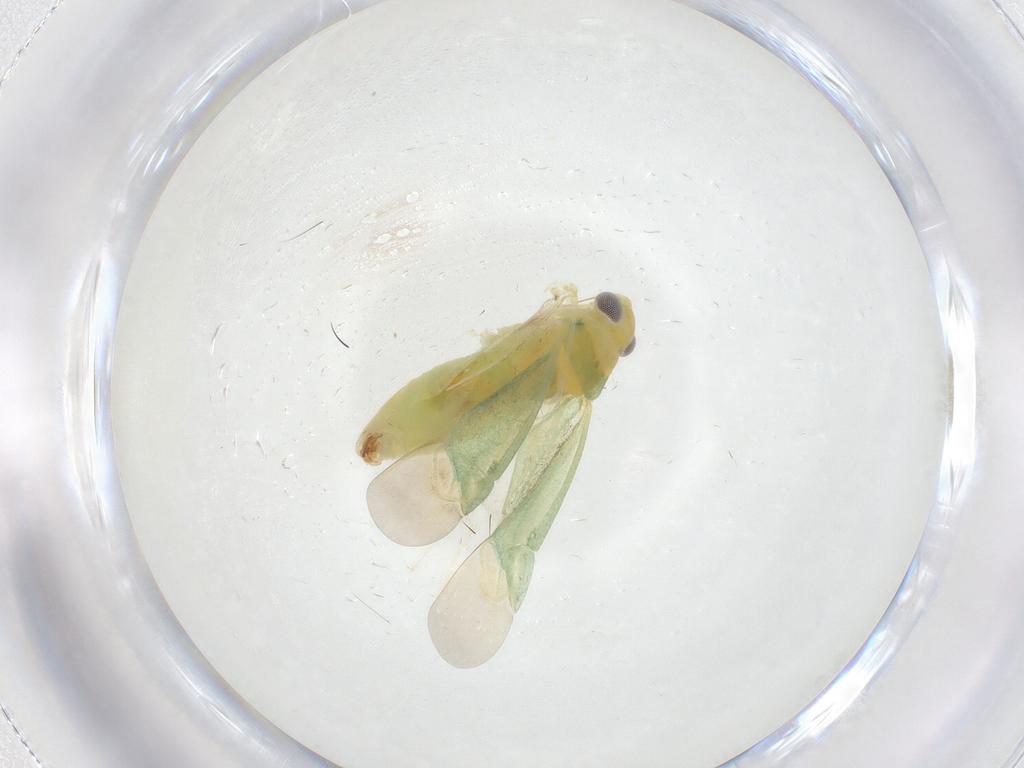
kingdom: Animalia
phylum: Arthropoda
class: Insecta
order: Hemiptera
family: Miridae
